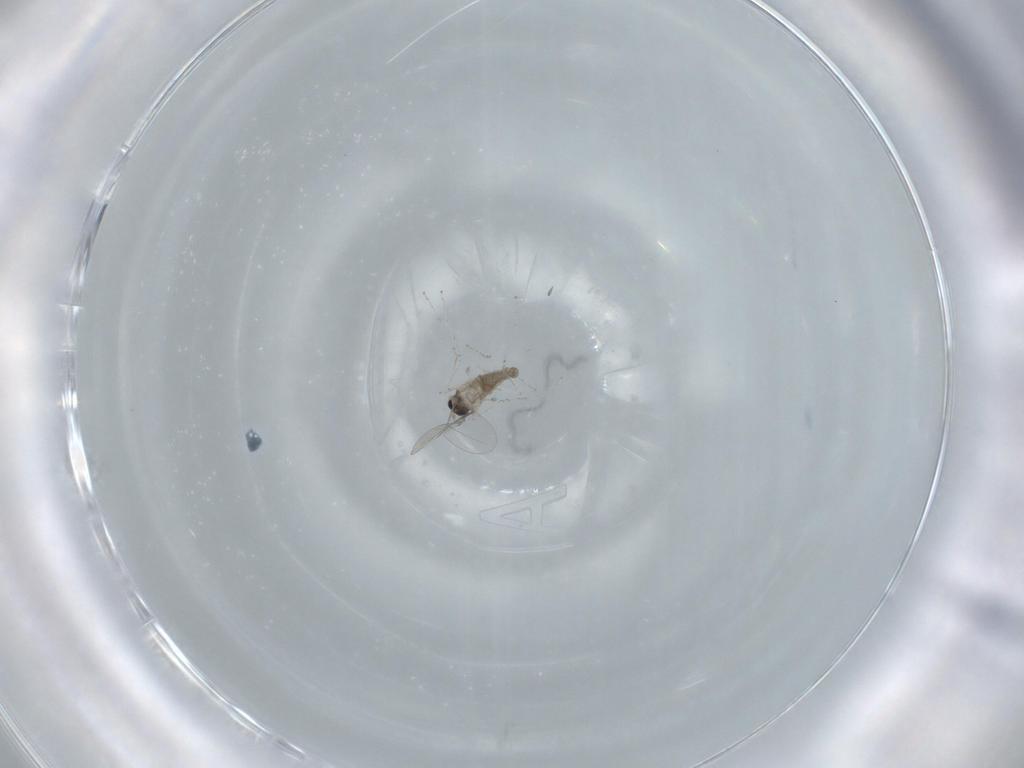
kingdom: Animalia
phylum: Arthropoda
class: Insecta
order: Diptera
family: Cecidomyiidae
